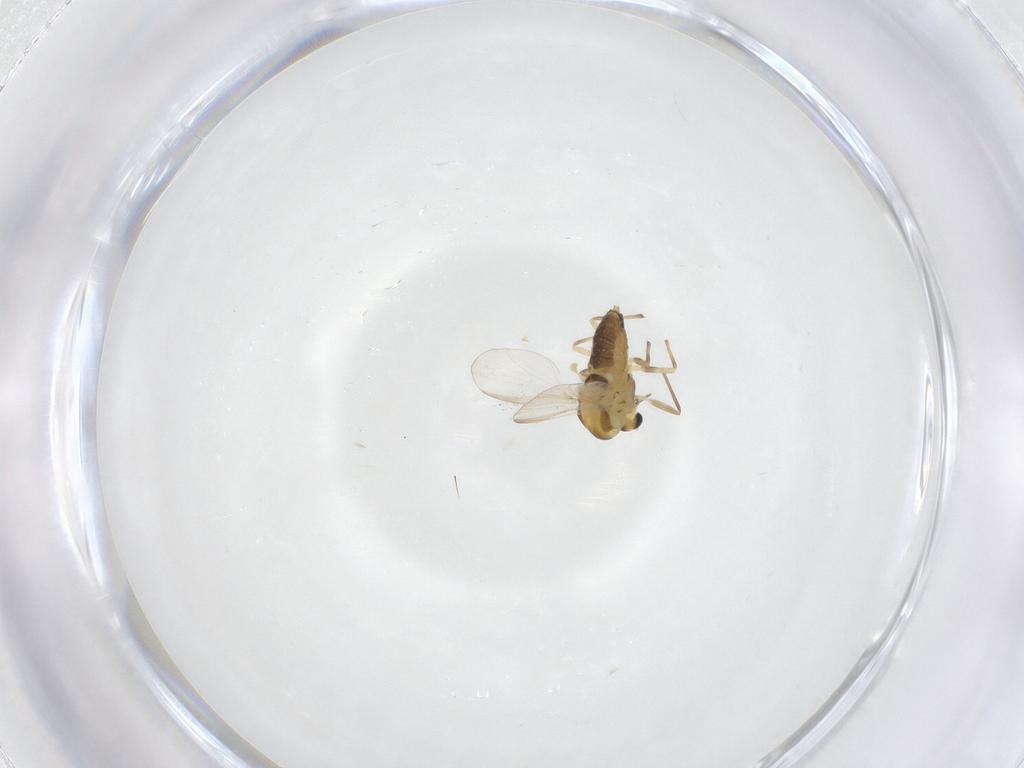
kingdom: Animalia
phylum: Arthropoda
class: Insecta
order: Diptera
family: Chironomidae
